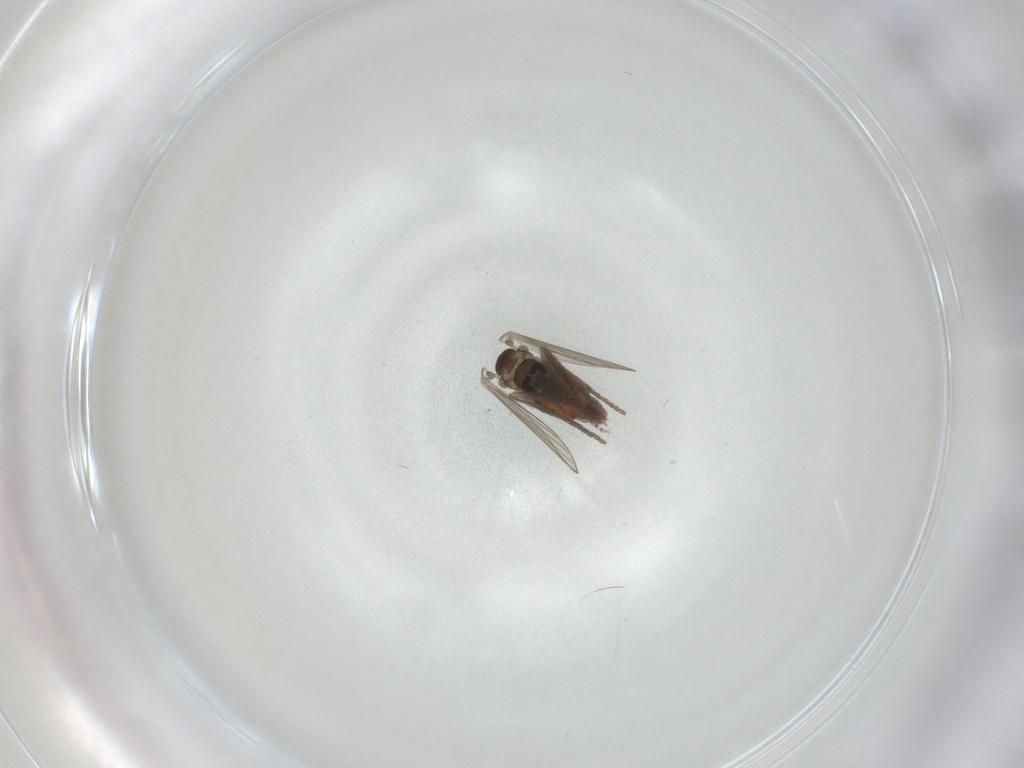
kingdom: Animalia
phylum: Arthropoda
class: Insecta
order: Diptera
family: Psychodidae
